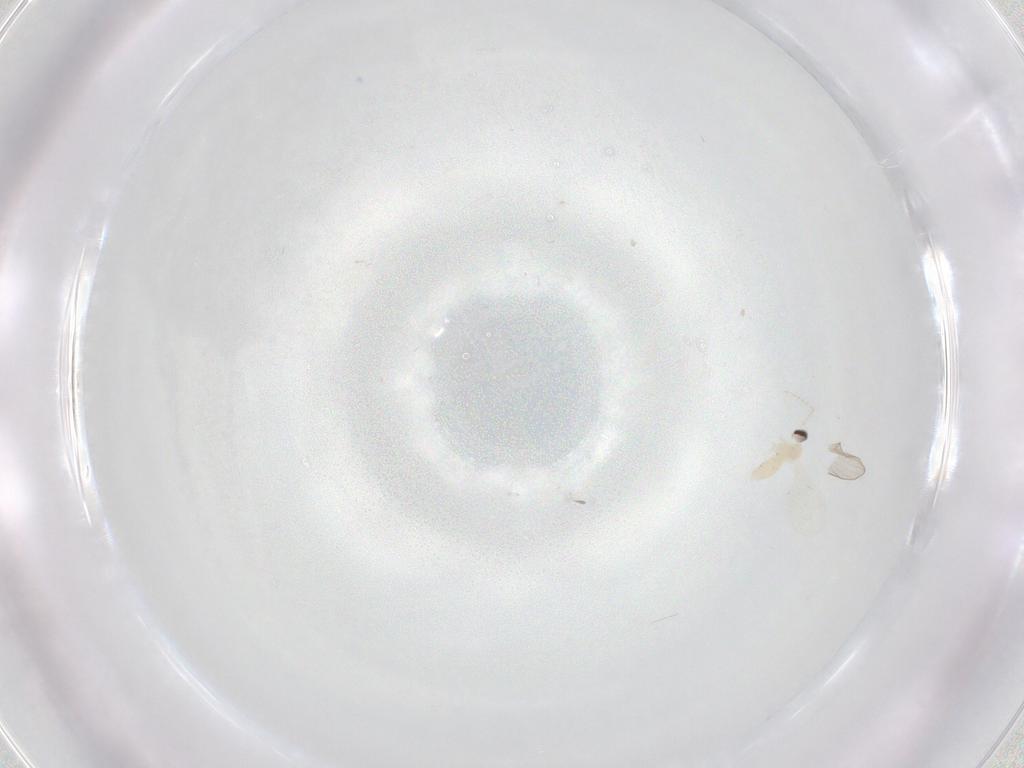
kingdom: Animalia
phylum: Arthropoda
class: Insecta
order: Diptera
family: Cecidomyiidae
